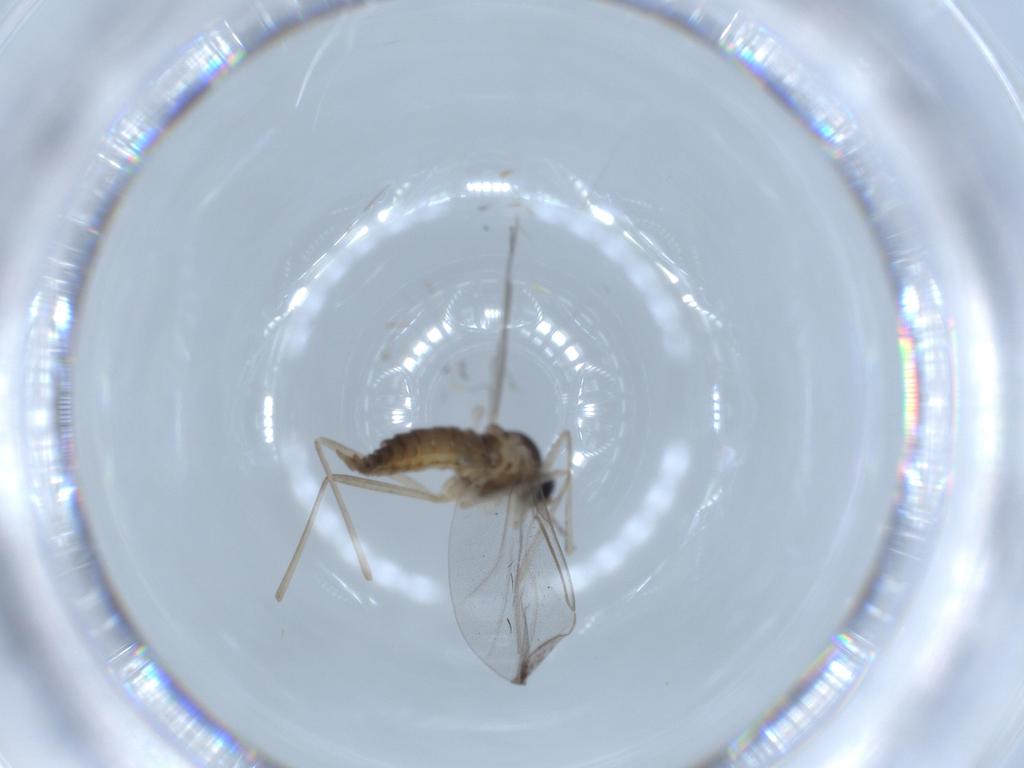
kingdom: Animalia
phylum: Arthropoda
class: Insecta
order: Diptera
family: Cecidomyiidae
